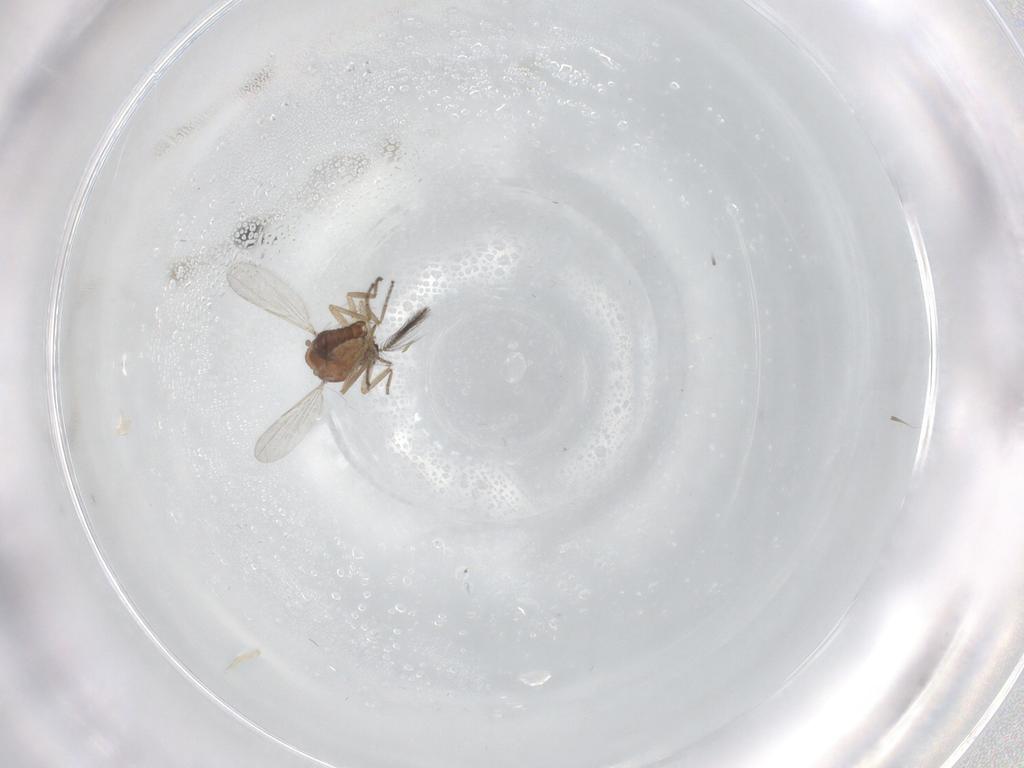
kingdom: Animalia
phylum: Arthropoda
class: Insecta
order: Diptera
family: Ceratopogonidae
